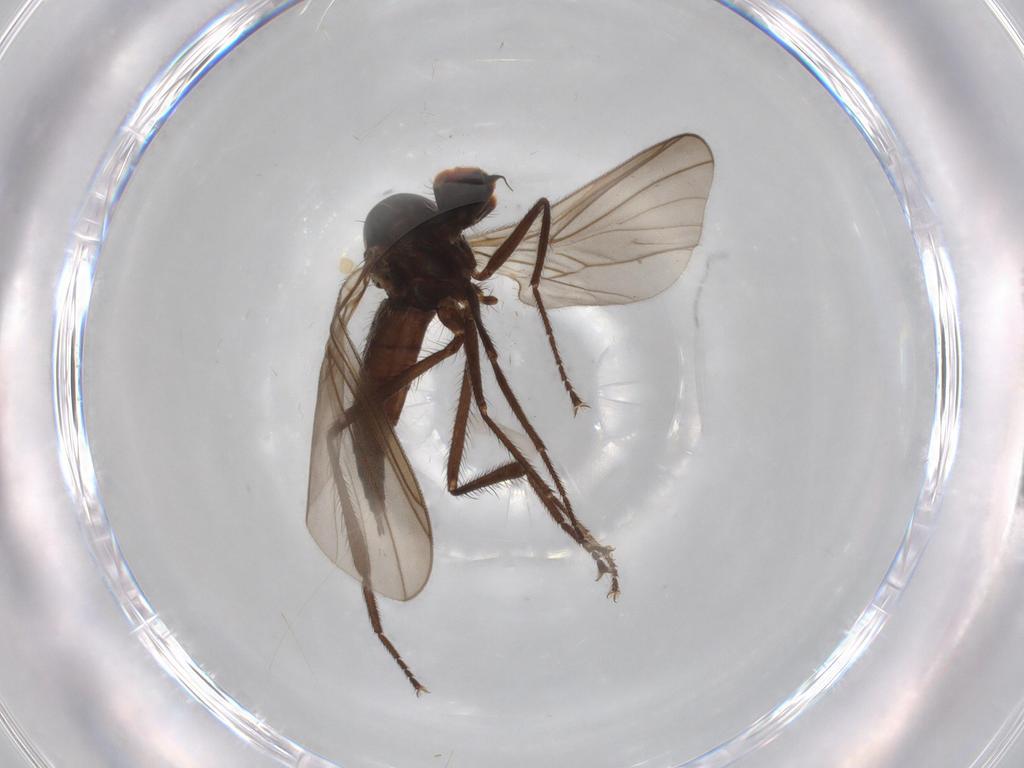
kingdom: Animalia
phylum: Arthropoda
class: Insecta
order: Diptera
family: Hybotidae
